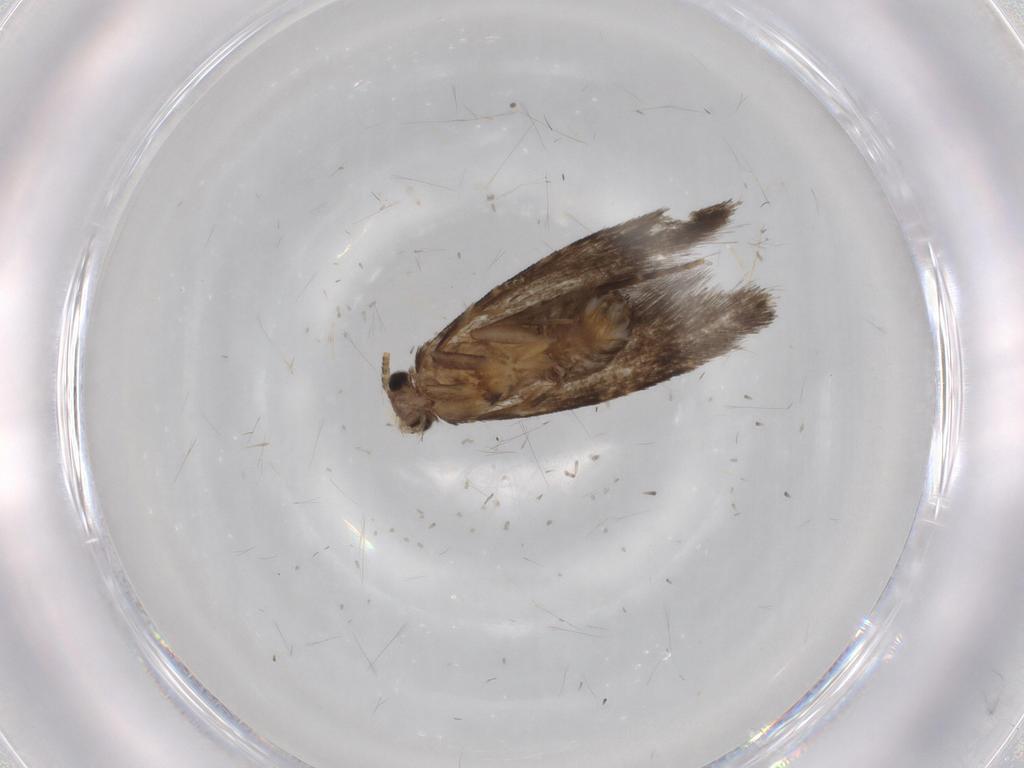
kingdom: Animalia
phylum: Arthropoda
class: Insecta
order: Lepidoptera
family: Tineidae
